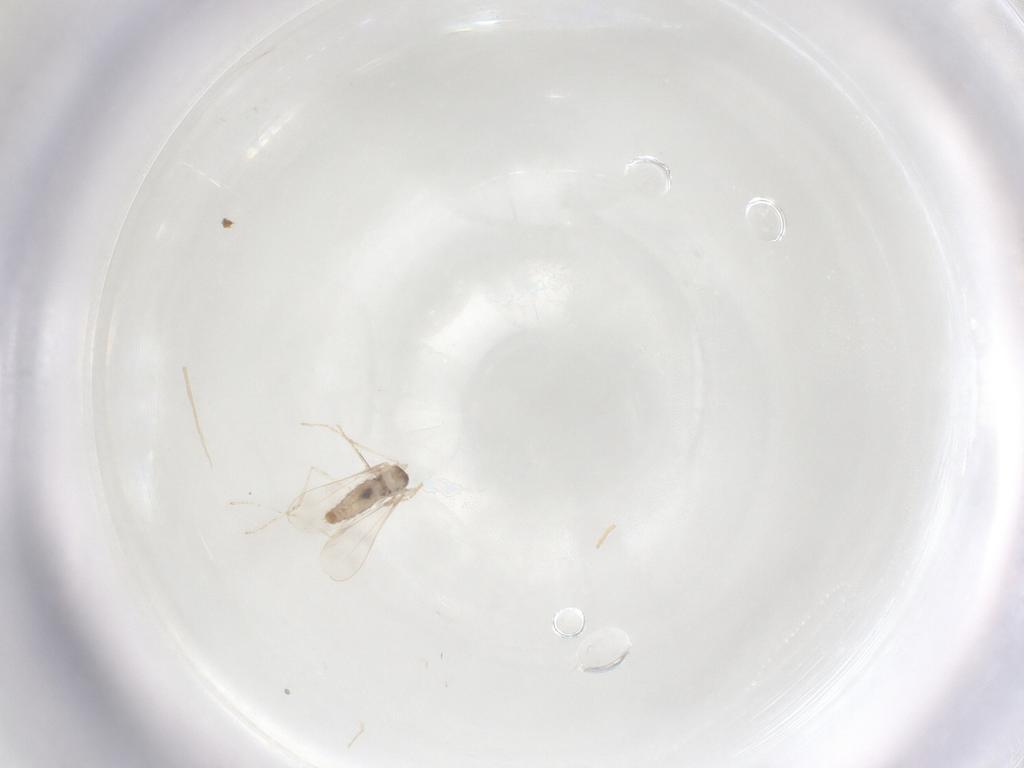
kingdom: Animalia
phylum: Arthropoda
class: Insecta
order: Diptera
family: Cecidomyiidae
